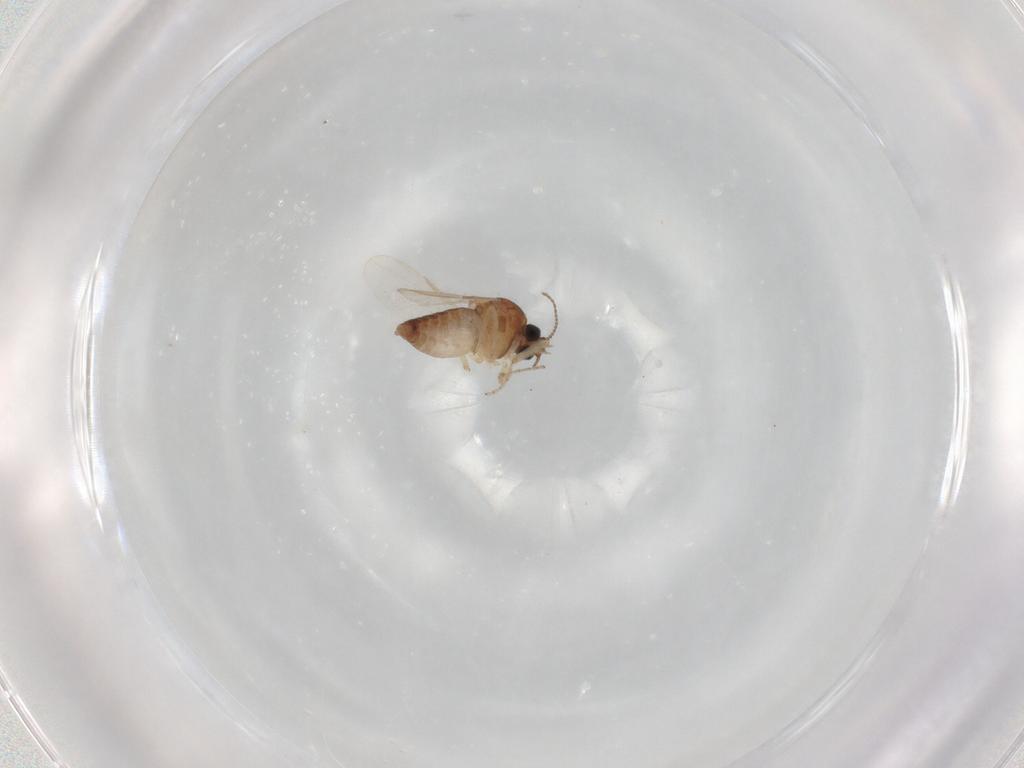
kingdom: Animalia
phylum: Arthropoda
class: Insecta
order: Diptera
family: Ceratopogonidae
